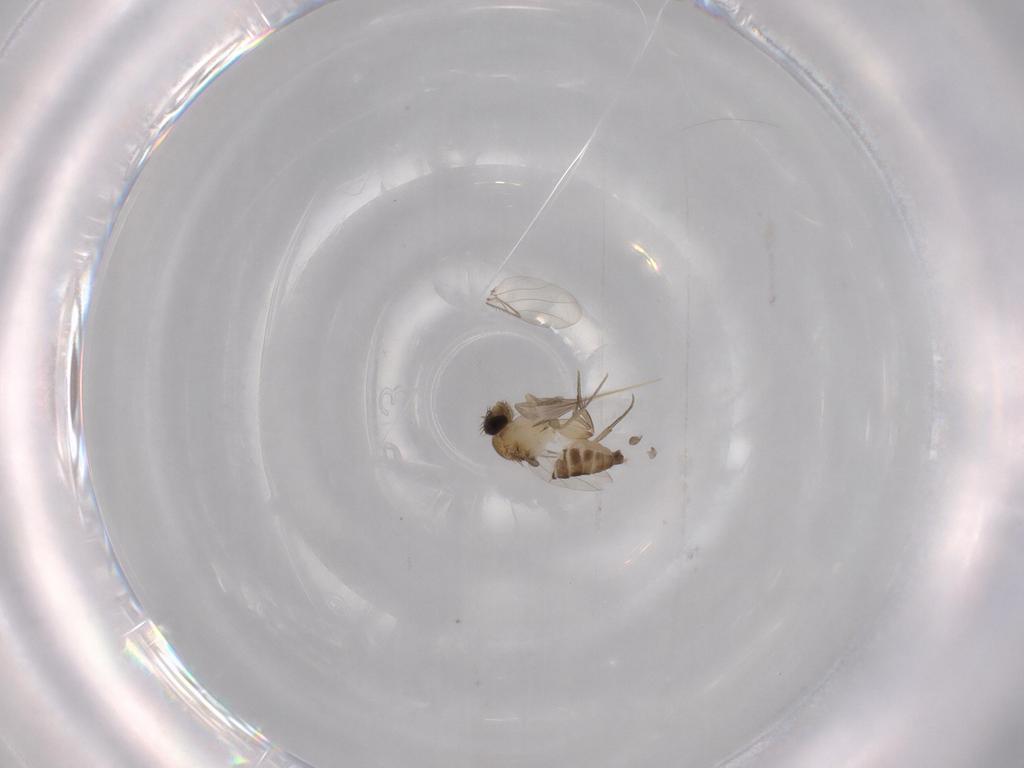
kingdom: Animalia
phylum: Arthropoda
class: Insecta
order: Diptera
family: Phoridae
